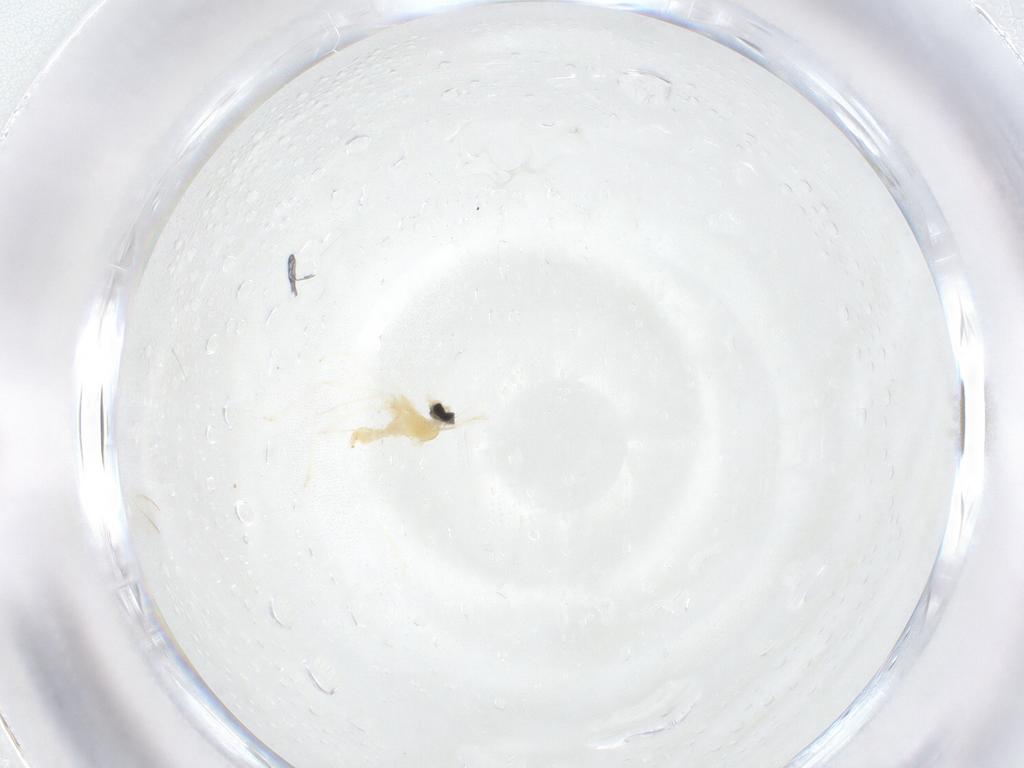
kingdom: Animalia
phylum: Arthropoda
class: Insecta
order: Diptera
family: Cecidomyiidae
